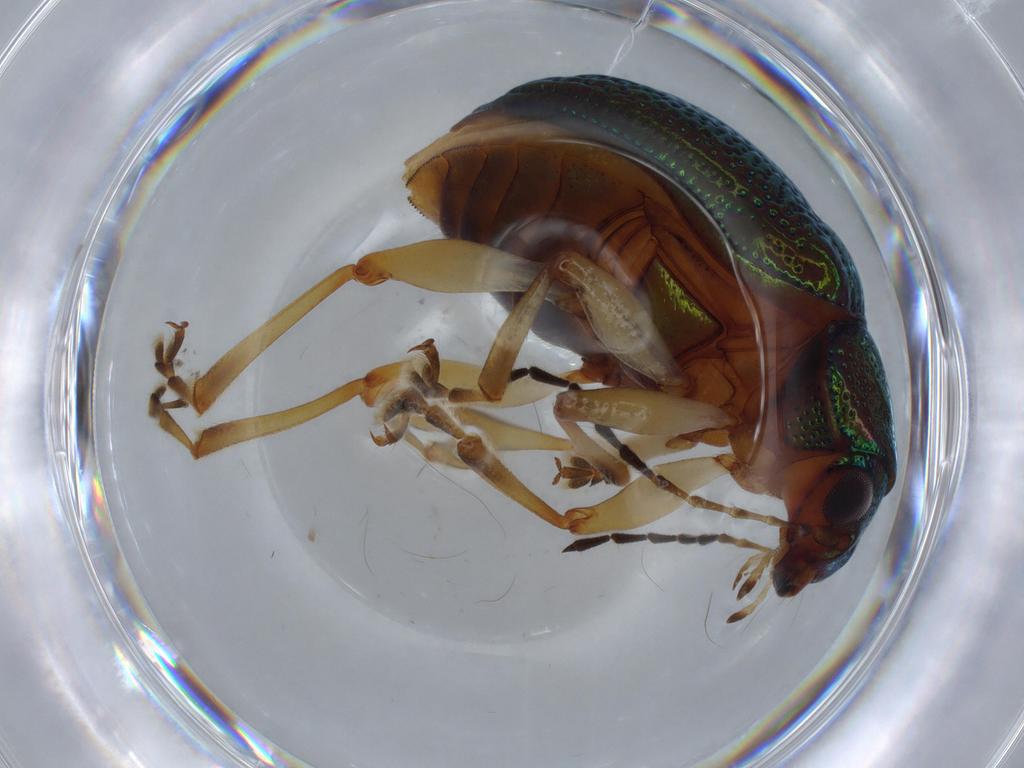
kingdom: Animalia
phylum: Arthropoda
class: Insecta
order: Coleoptera
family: Chrysomelidae
